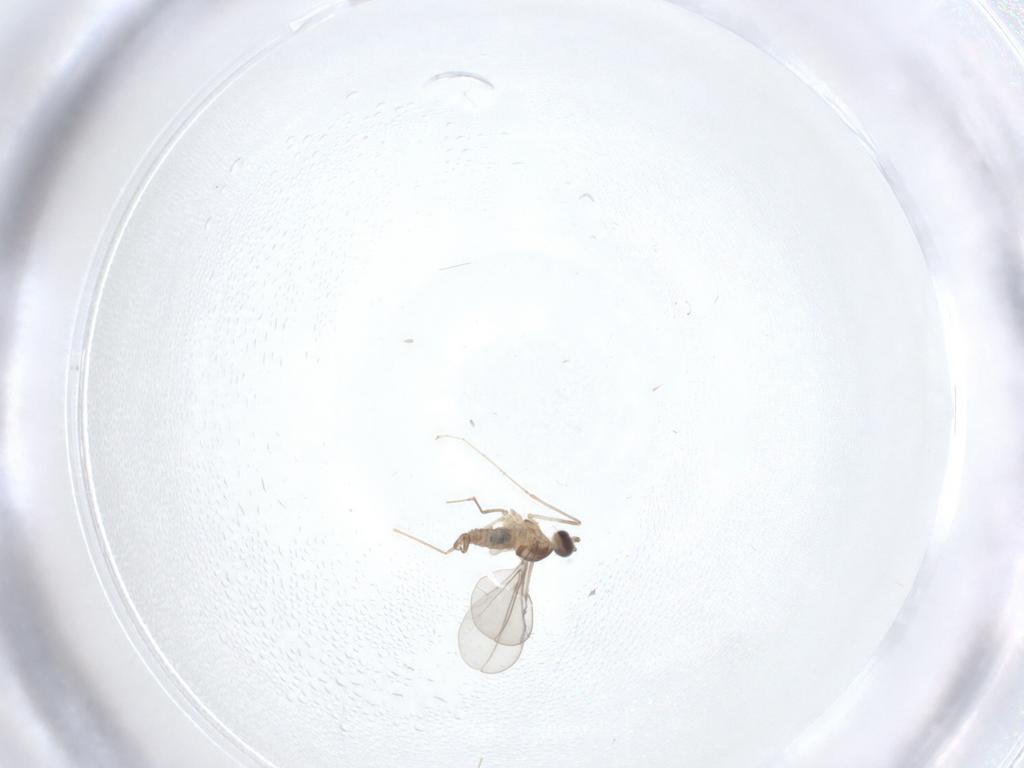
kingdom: Animalia
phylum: Arthropoda
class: Insecta
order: Diptera
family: Cecidomyiidae
